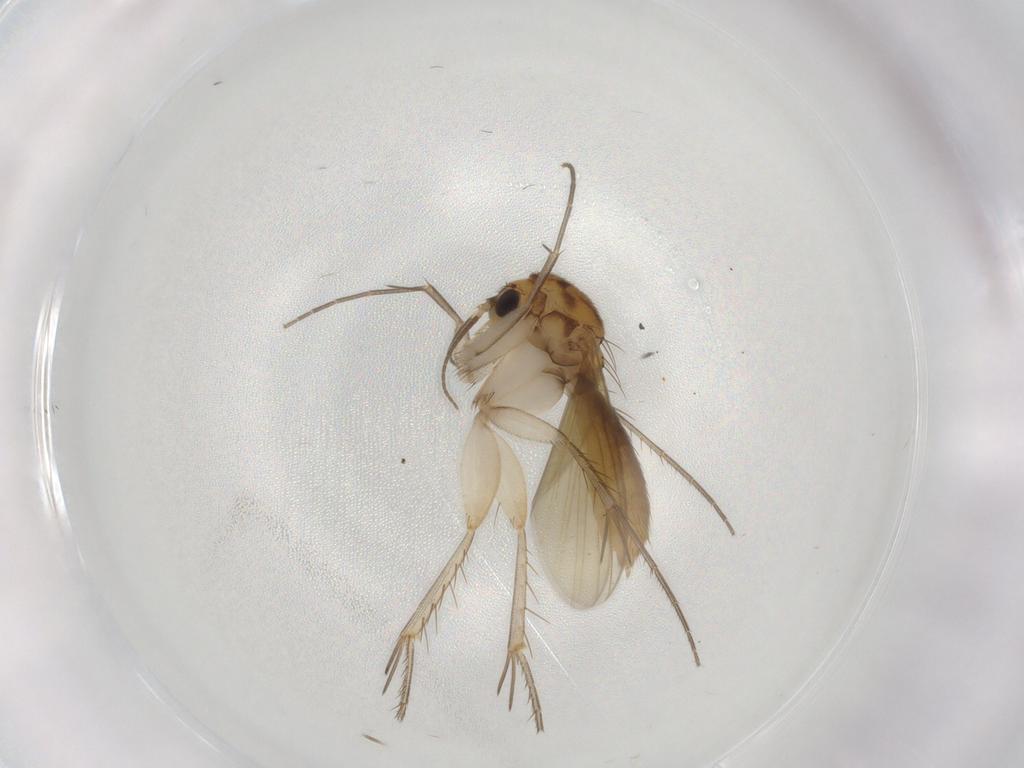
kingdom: Animalia
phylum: Arthropoda
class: Insecta
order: Diptera
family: Mycetophilidae
